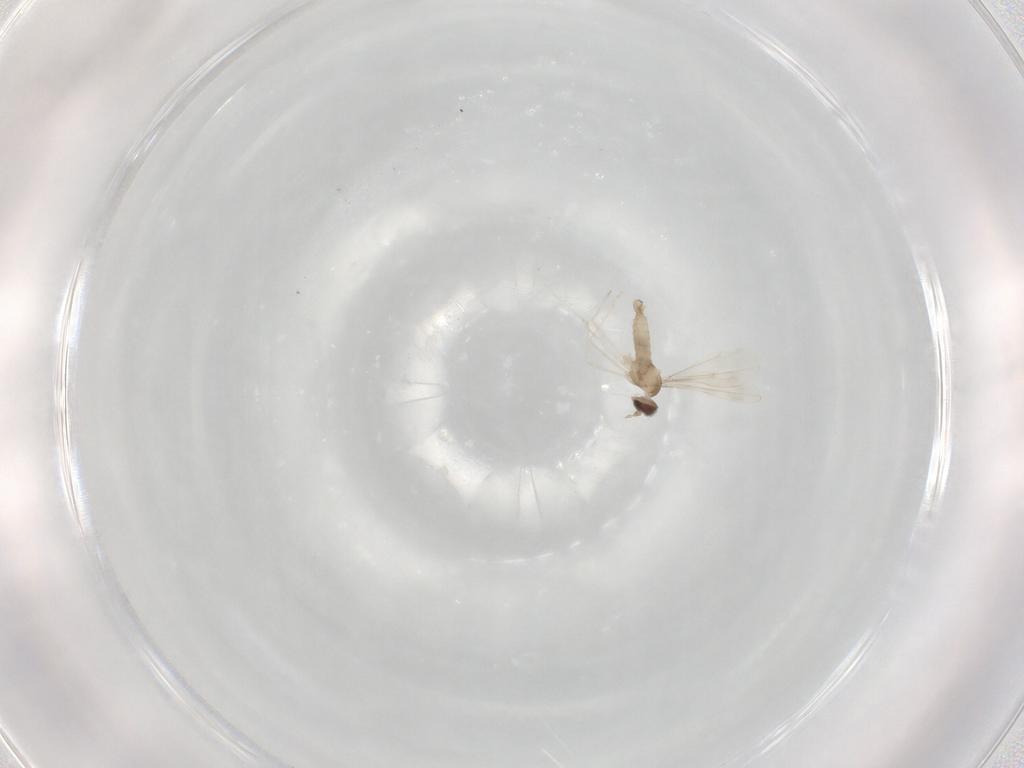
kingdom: Animalia
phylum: Arthropoda
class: Insecta
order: Diptera
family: Cecidomyiidae
